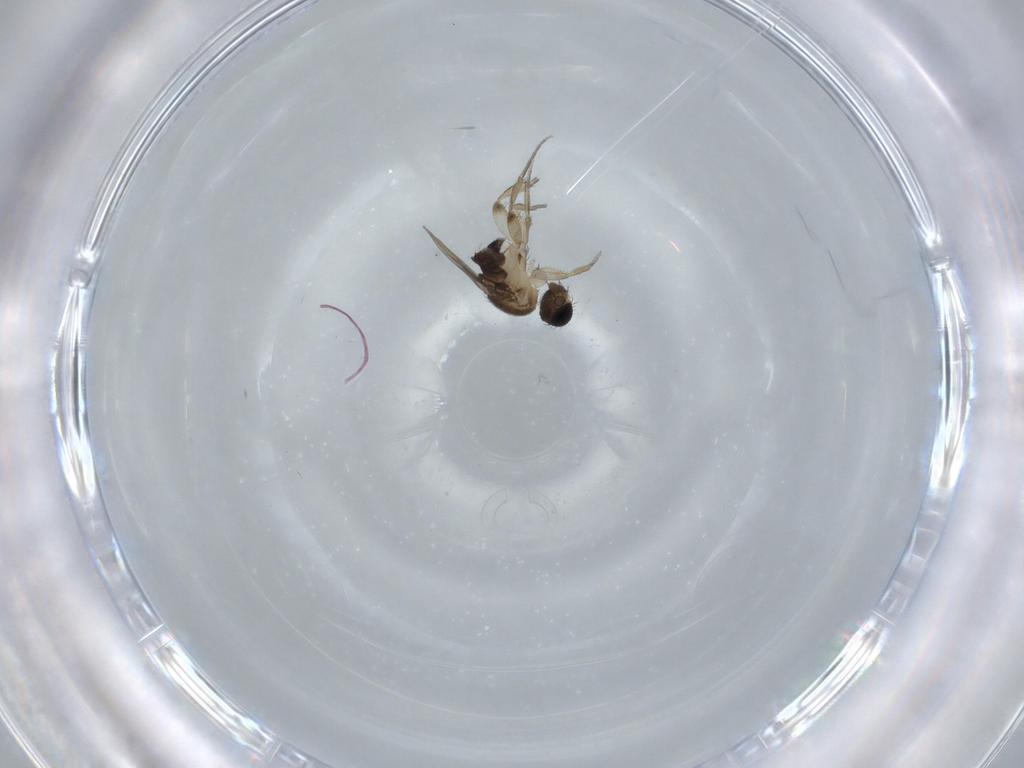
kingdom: Animalia
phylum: Arthropoda
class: Insecta
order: Diptera
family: Phoridae
